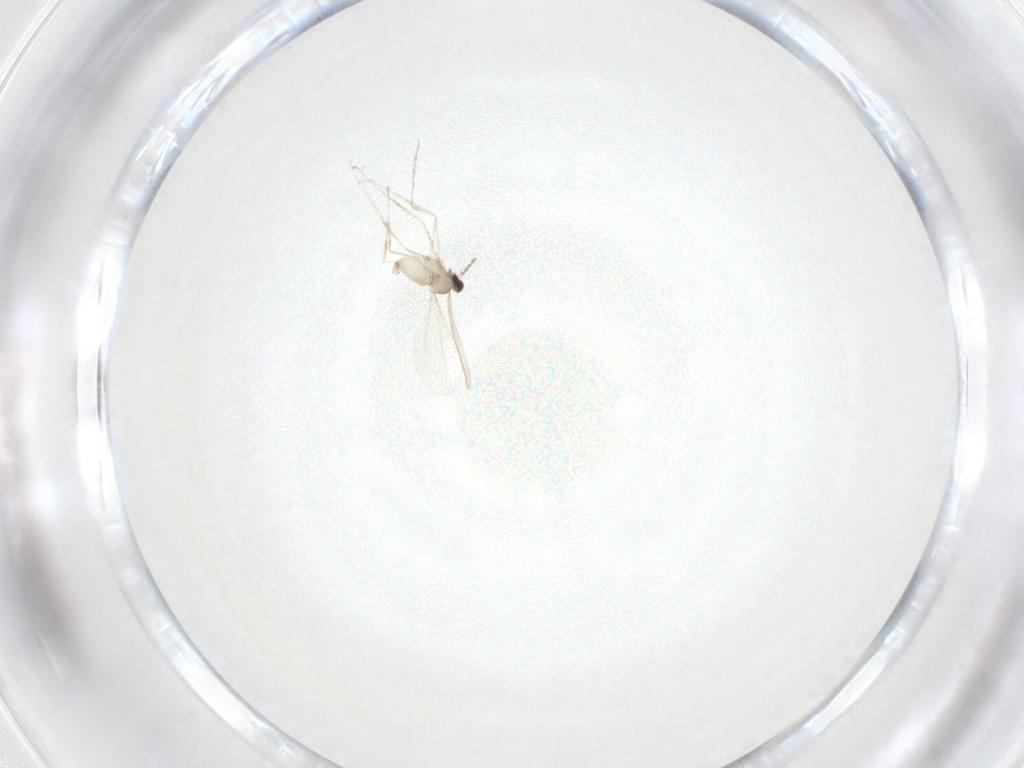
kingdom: Animalia
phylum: Arthropoda
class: Insecta
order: Diptera
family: Cecidomyiidae
